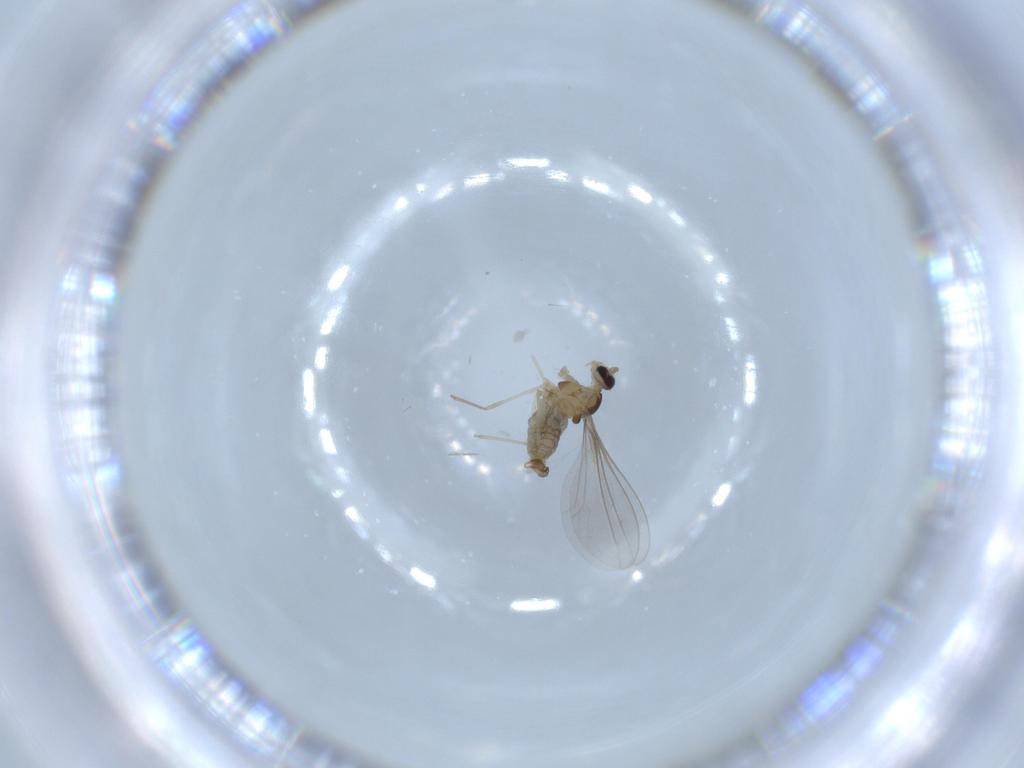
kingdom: Animalia
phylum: Arthropoda
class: Insecta
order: Diptera
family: Cecidomyiidae
